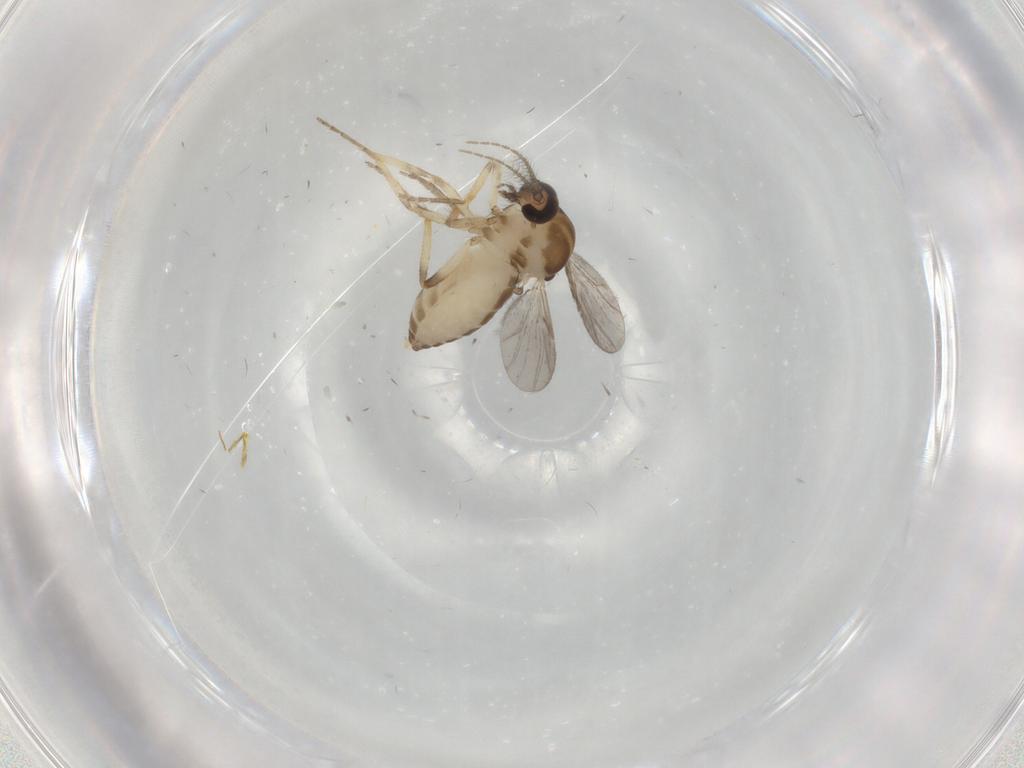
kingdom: Animalia
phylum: Arthropoda
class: Insecta
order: Diptera
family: Ceratopogonidae
